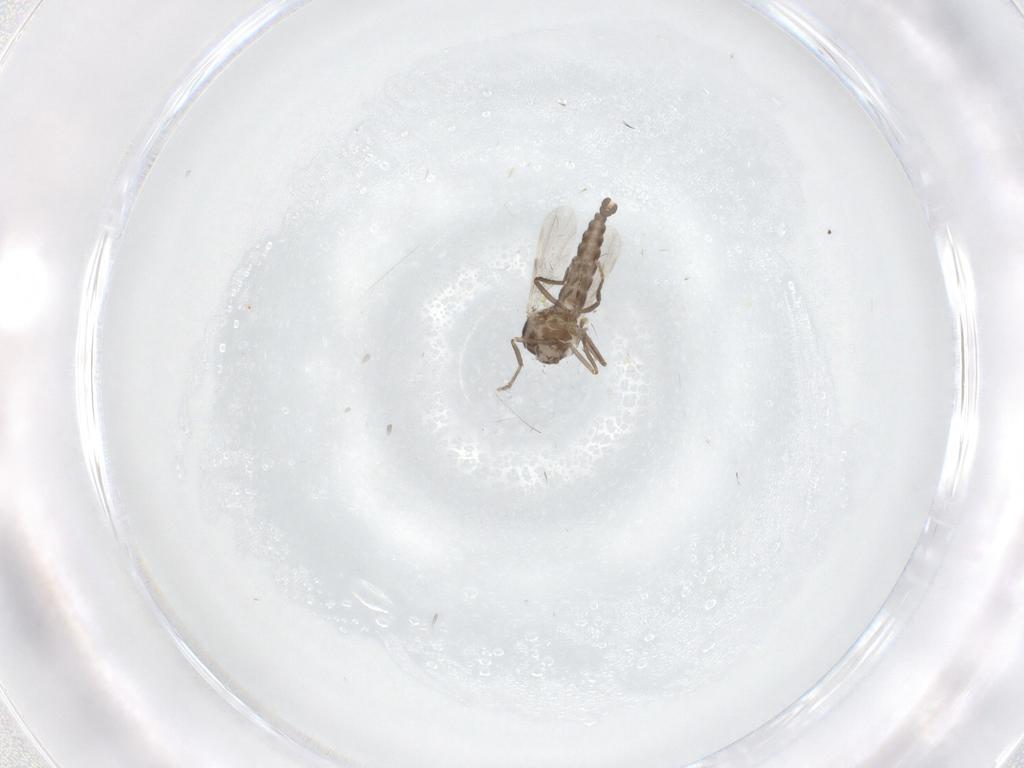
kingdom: Animalia
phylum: Arthropoda
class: Insecta
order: Diptera
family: Ceratopogonidae
